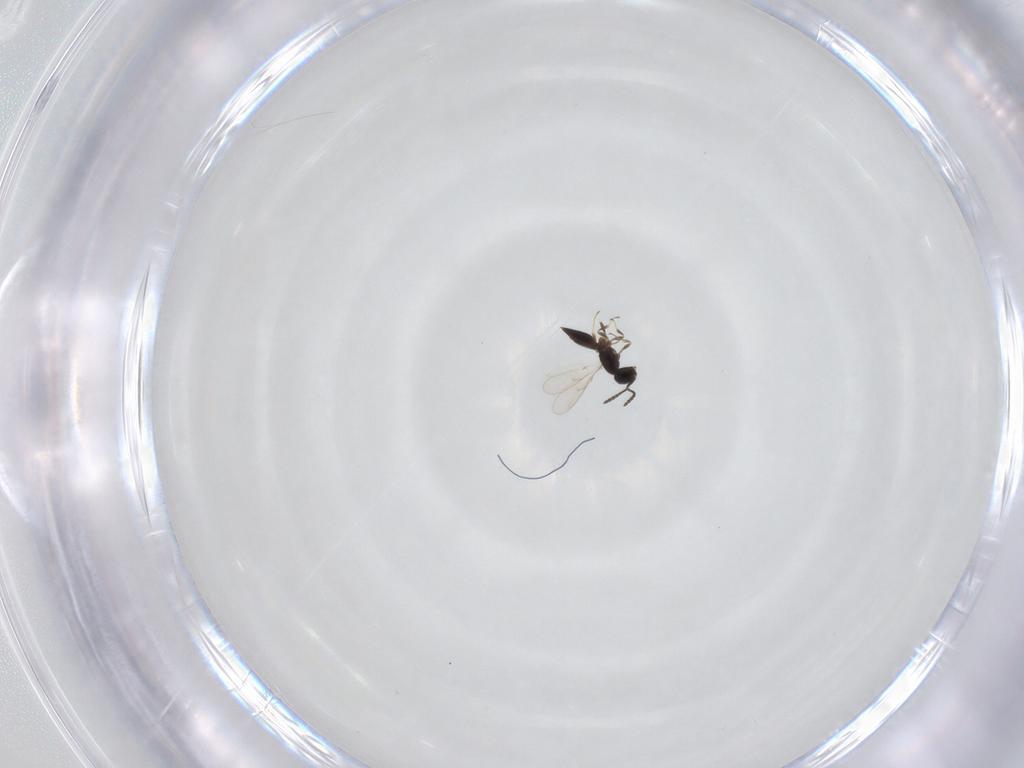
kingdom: Animalia
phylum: Arthropoda
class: Insecta
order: Hymenoptera
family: Scelionidae
